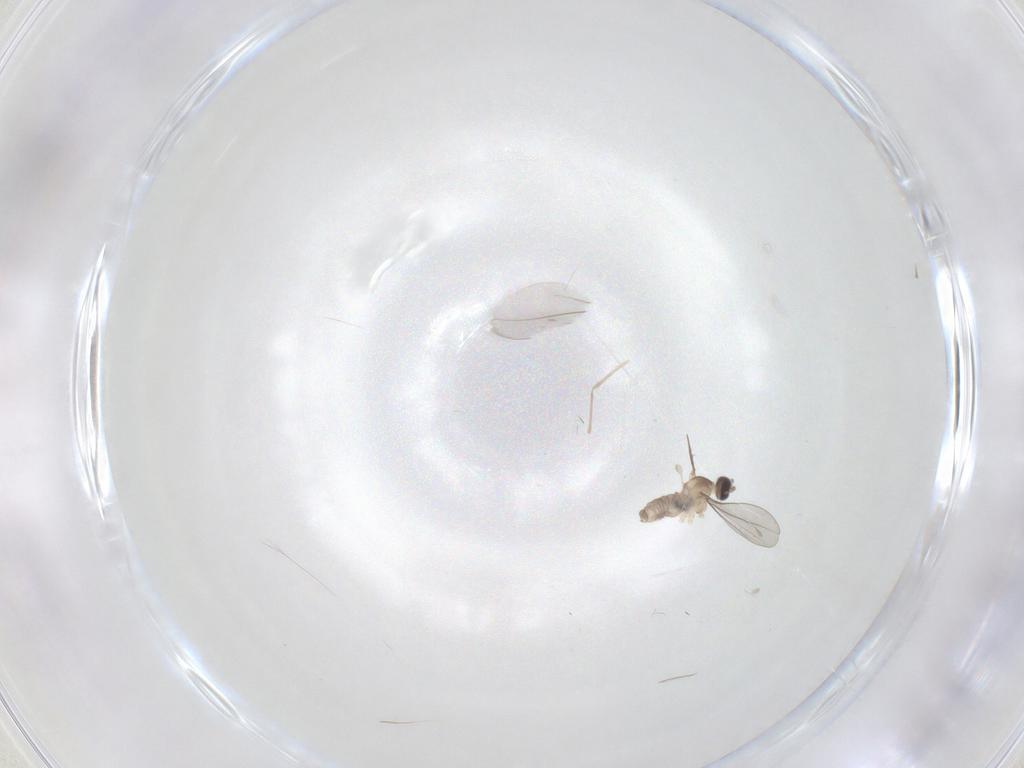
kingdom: Animalia
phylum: Arthropoda
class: Insecta
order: Diptera
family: Cecidomyiidae
